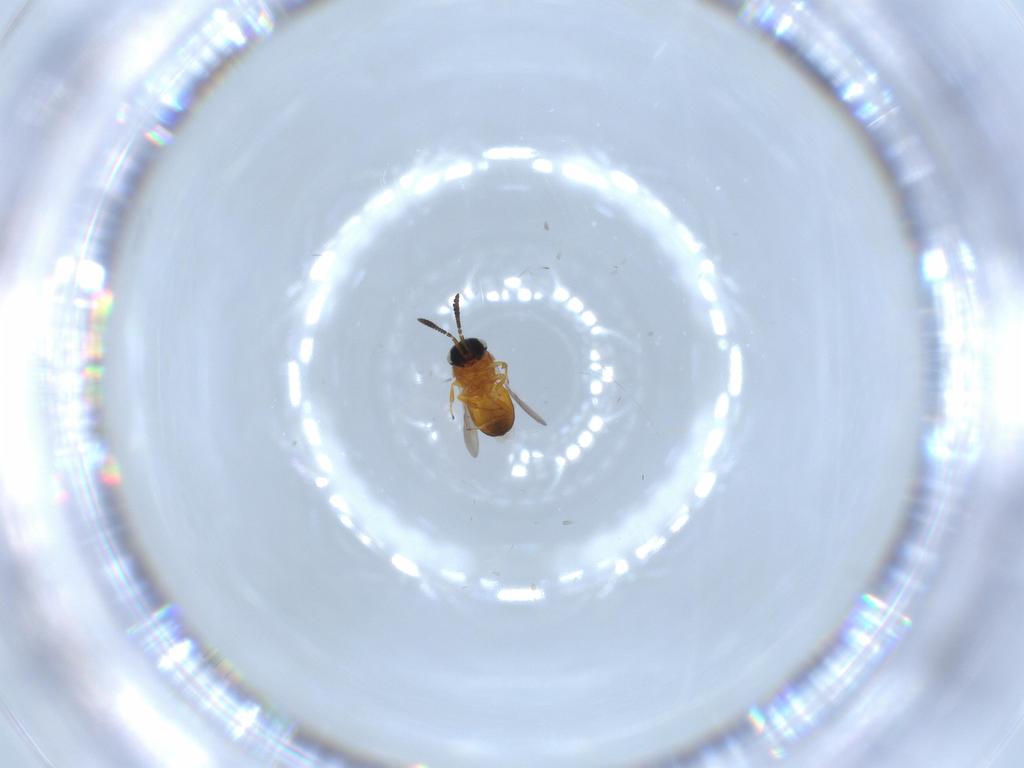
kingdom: Animalia
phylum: Arthropoda
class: Insecta
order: Hymenoptera
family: Scelionidae
